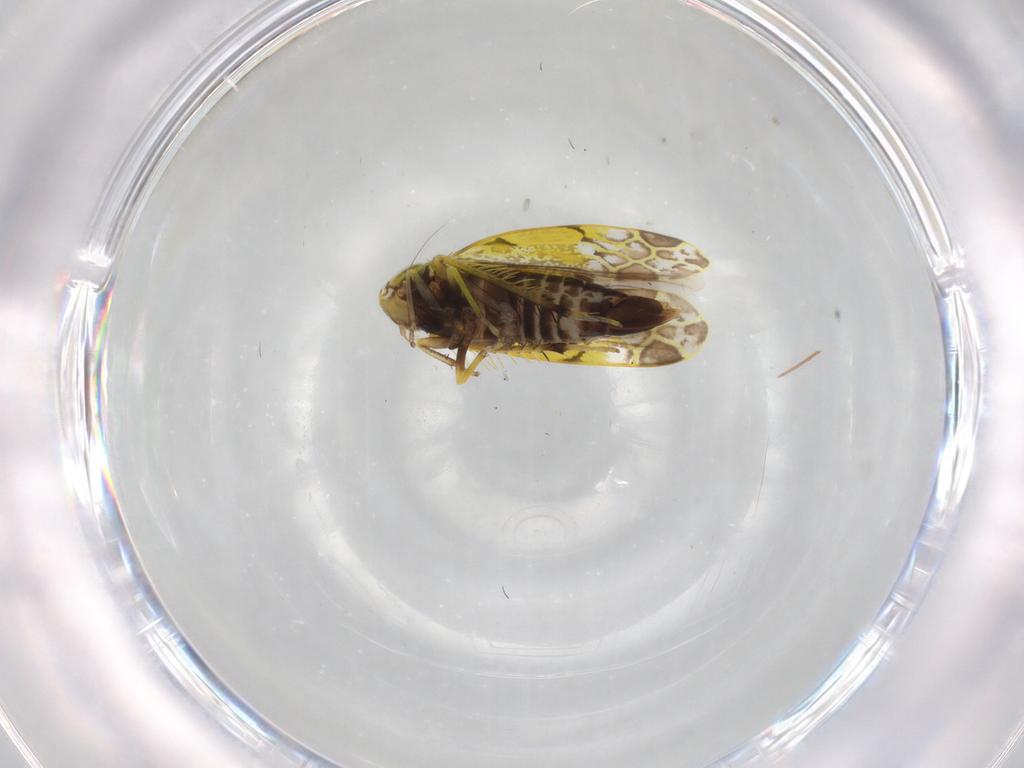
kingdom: Animalia
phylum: Arthropoda
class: Insecta
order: Hemiptera
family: Cicadellidae
